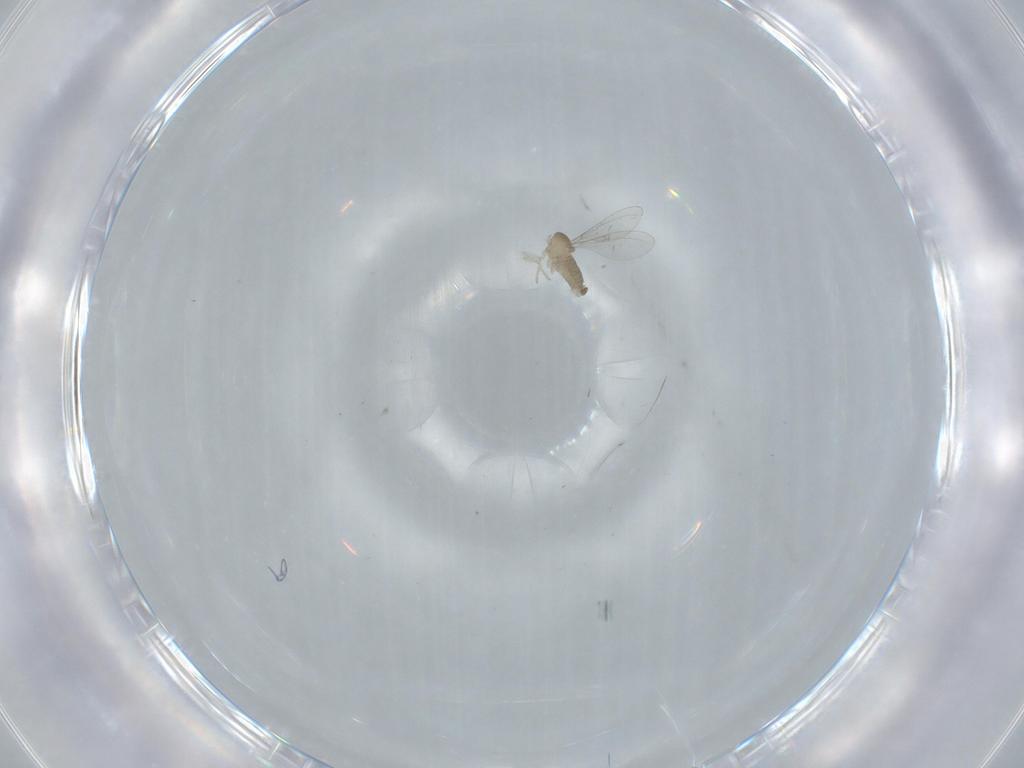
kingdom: Animalia
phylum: Arthropoda
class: Insecta
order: Diptera
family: Cecidomyiidae
